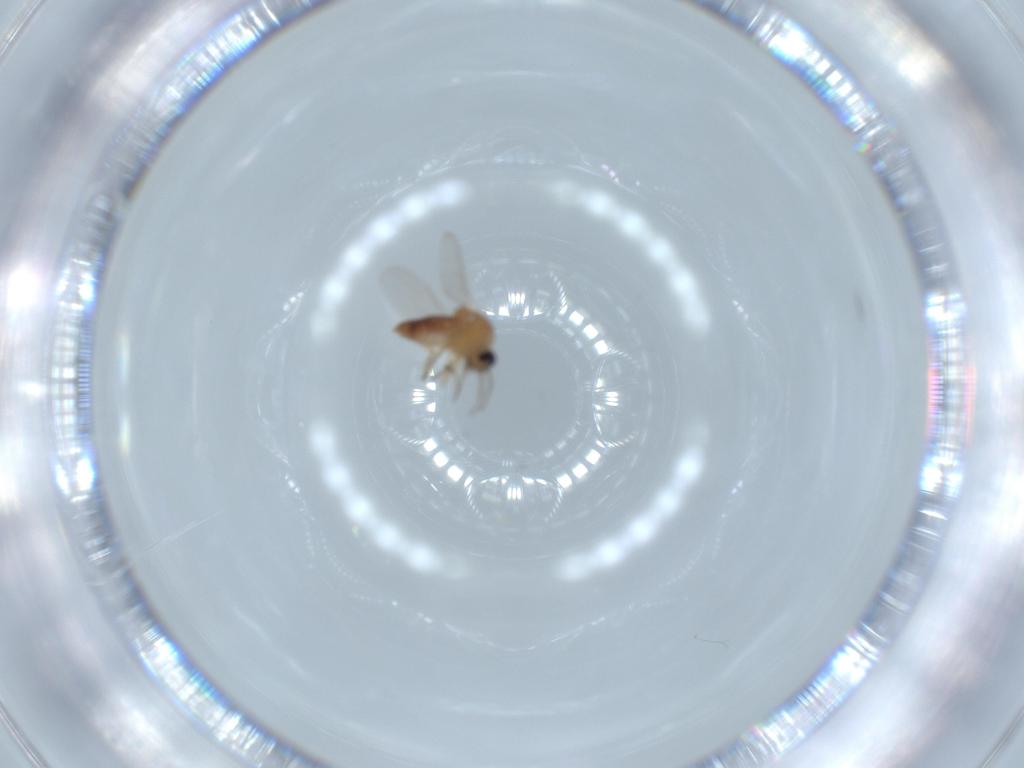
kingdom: Animalia
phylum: Arthropoda
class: Insecta
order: Diptera
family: Ceratopogonidae
